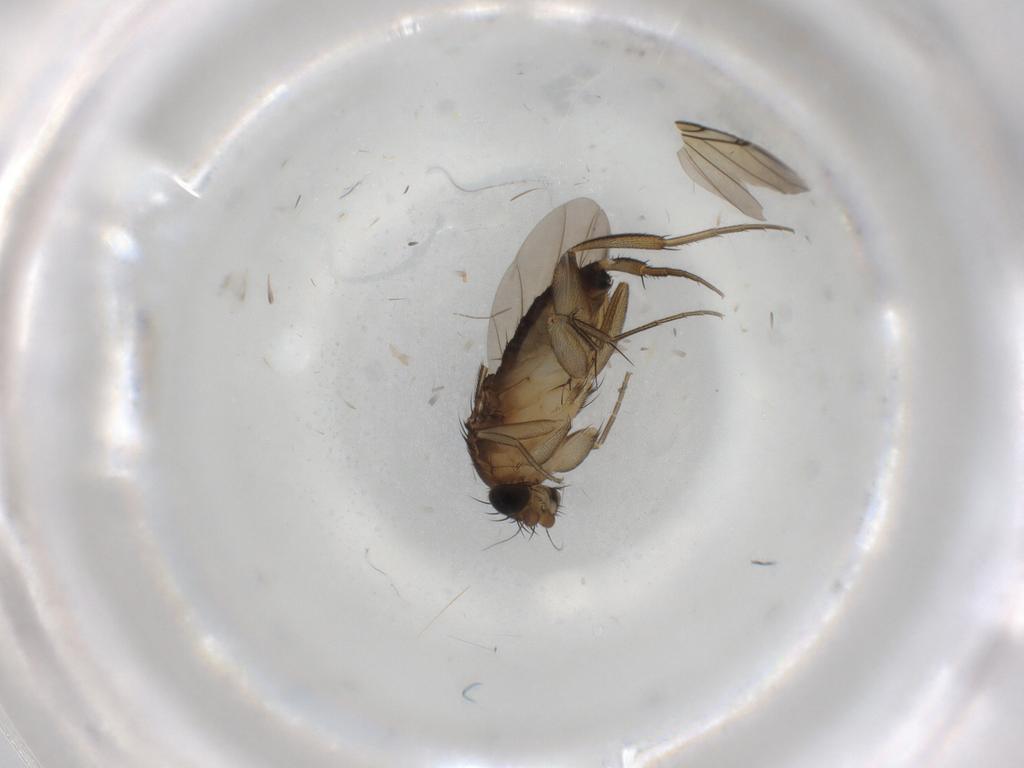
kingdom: Animalia
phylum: Arthropoda
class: Insecta
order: Diptera
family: Phoridae
